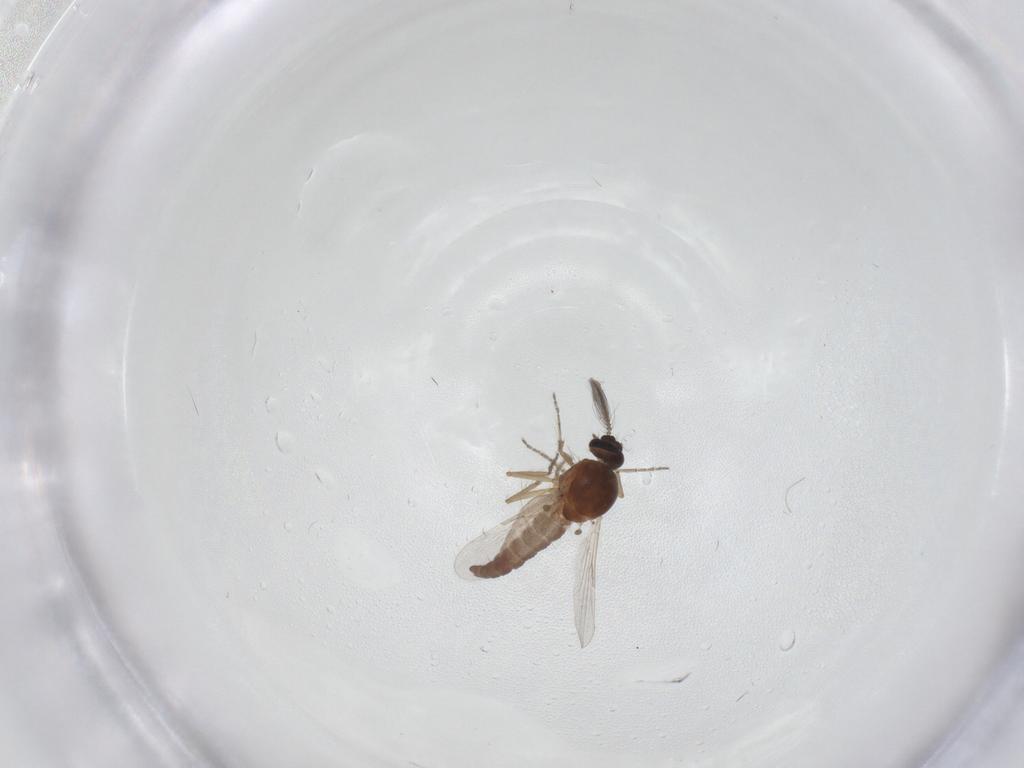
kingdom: Animalia
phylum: Arthropoda
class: Insecta
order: Diptera
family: Ceratopogonidae
